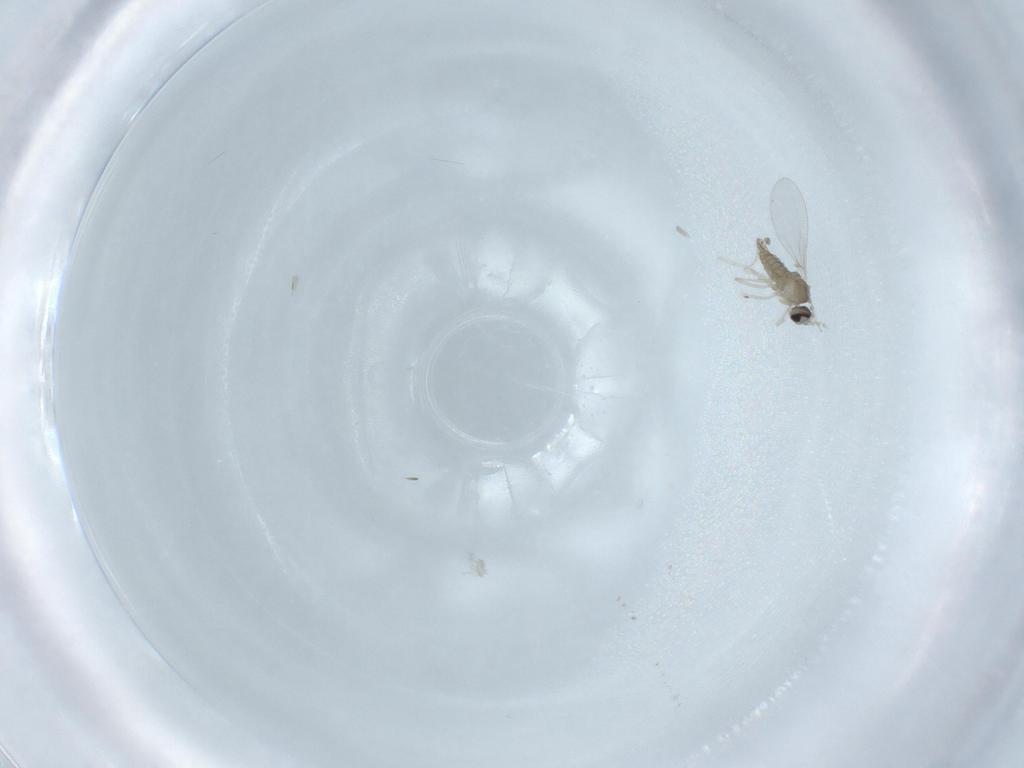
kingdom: Animalia
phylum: Arthropoda
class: Insecta
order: Diptera
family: Cecidomyiidae
